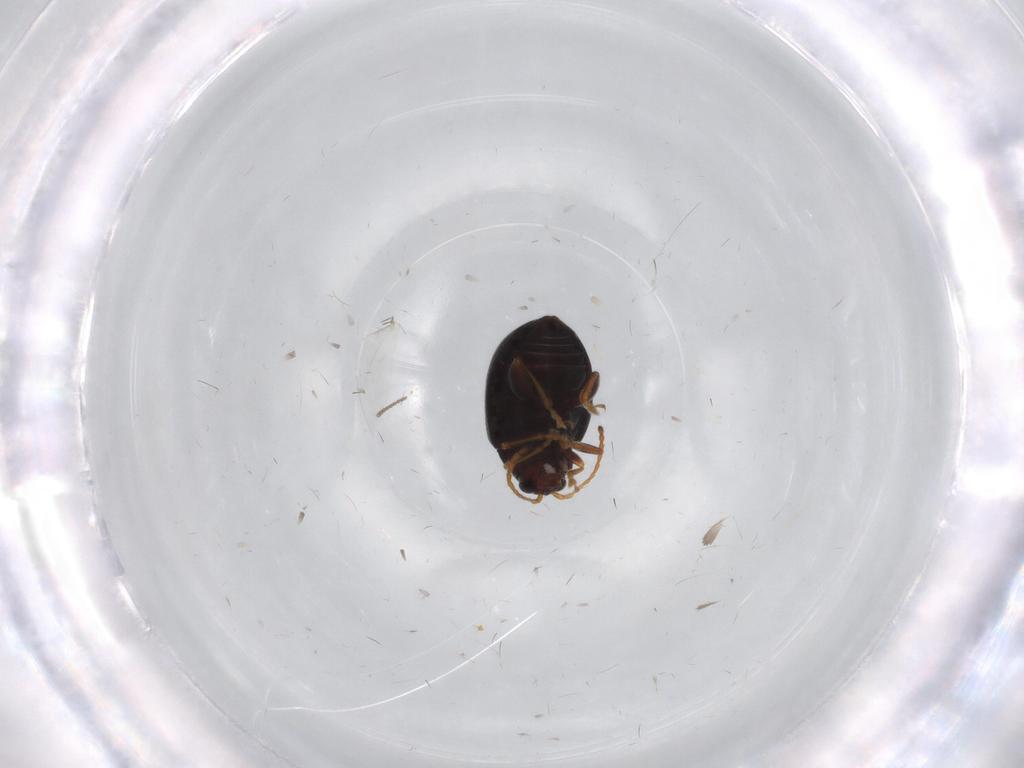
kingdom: Animalia
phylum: Arthropoda
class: Insecta
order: Coleoptera
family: Chrysomelidae
